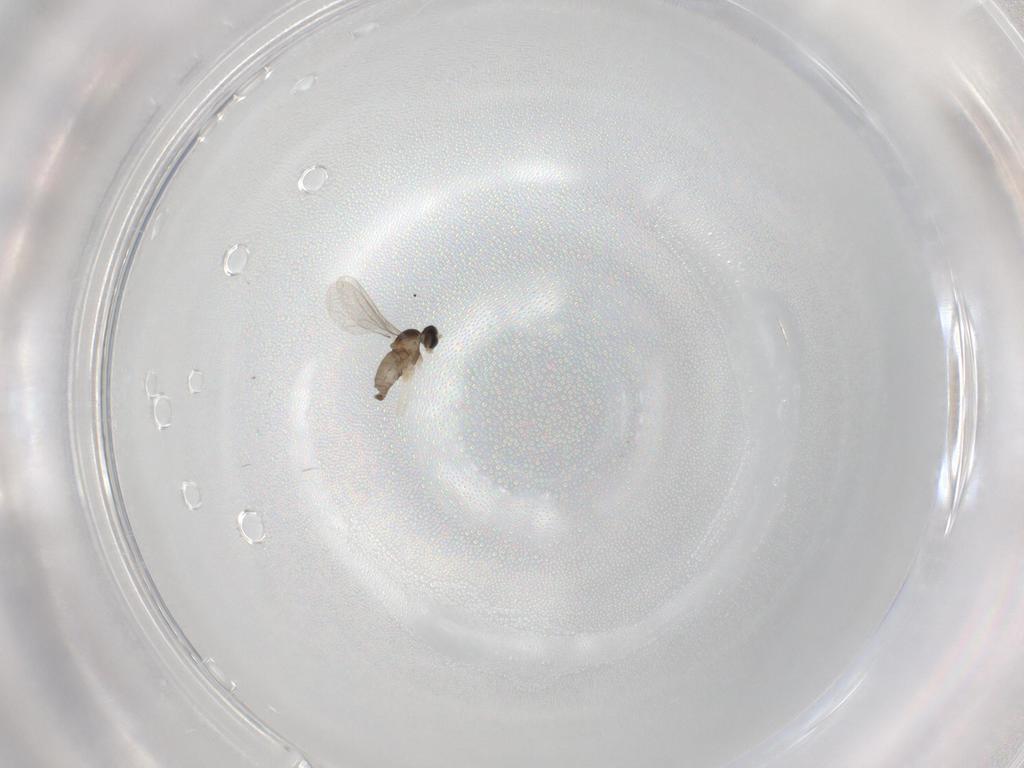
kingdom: Animalia
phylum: Arthropoda
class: Insecta
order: Diptera
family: Cecidomyiidae
